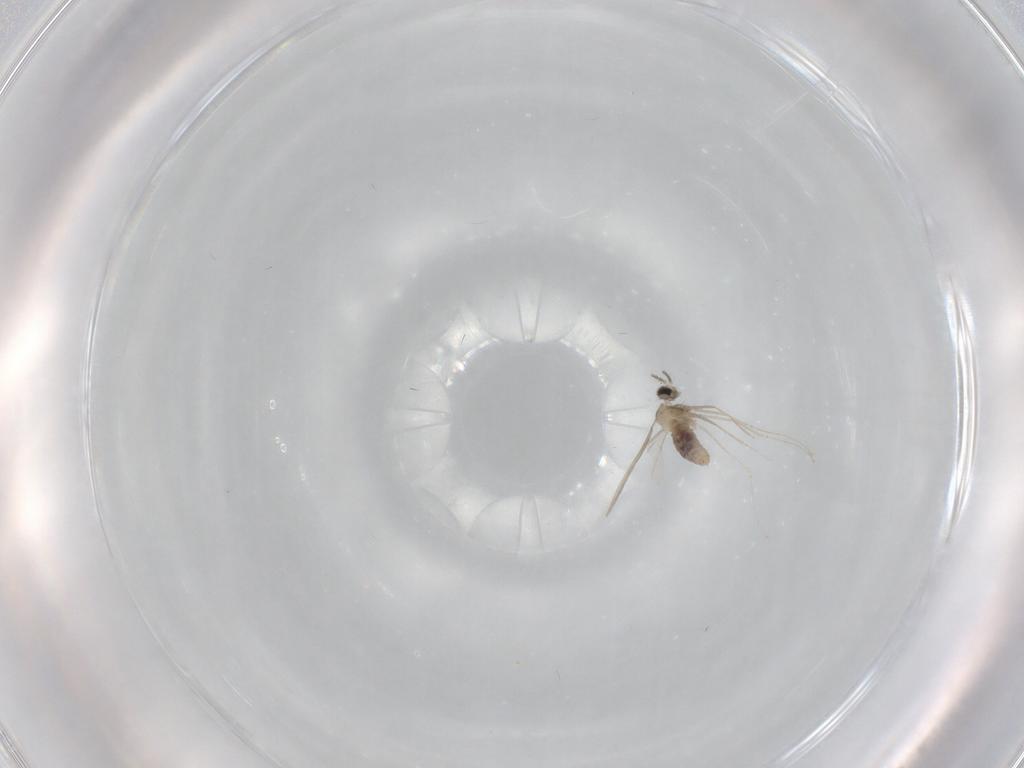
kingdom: Animalia
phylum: Arthropoda
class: Insecta
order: Diptera
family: Cecidomyiidae
